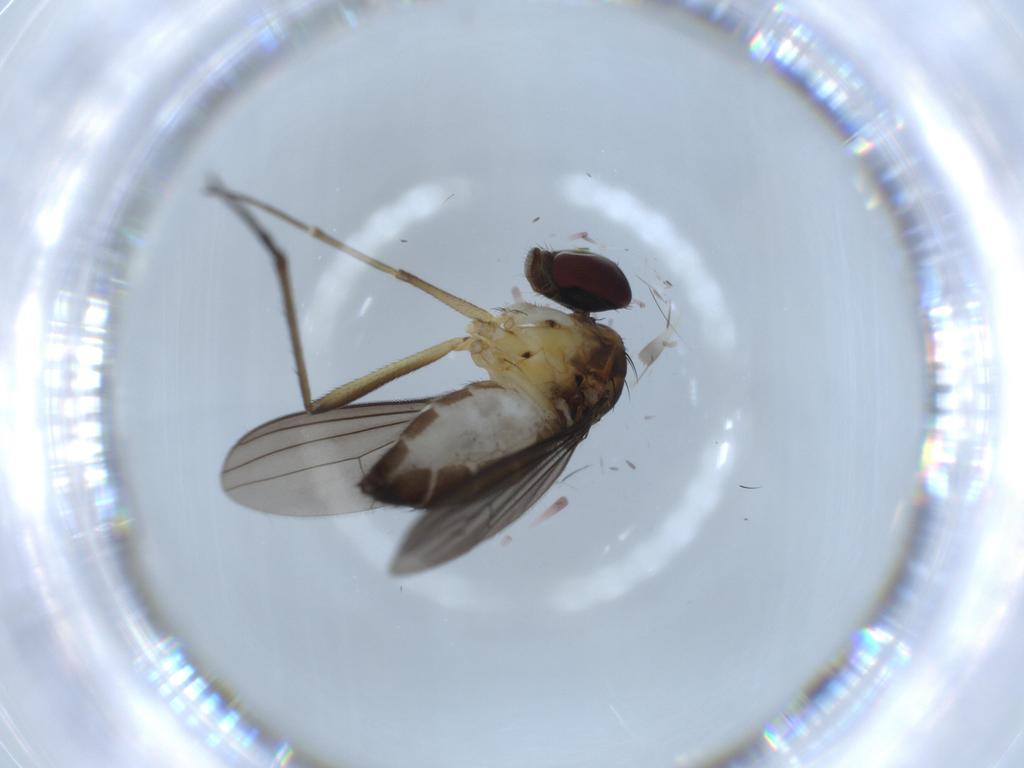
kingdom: Animalia
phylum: Arthropoda
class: Insecta
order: Diptera
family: Dolichopodidae
